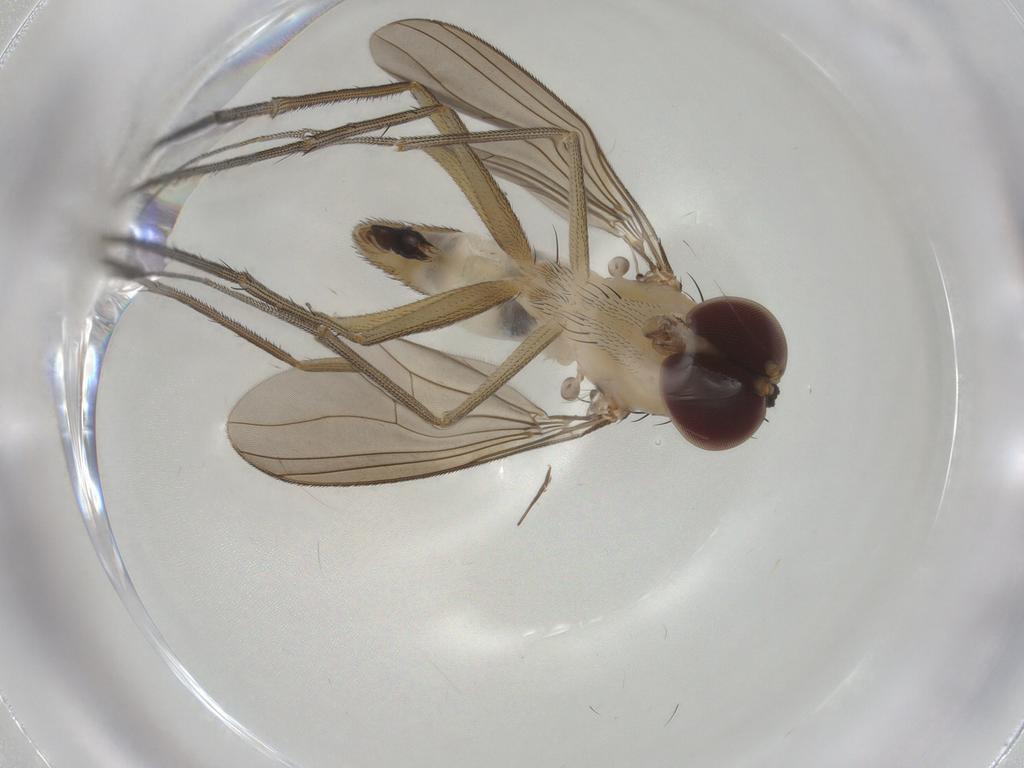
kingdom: Animalia
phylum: Arthropoda
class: Insecta
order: Diptera
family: Dolichopodidae
